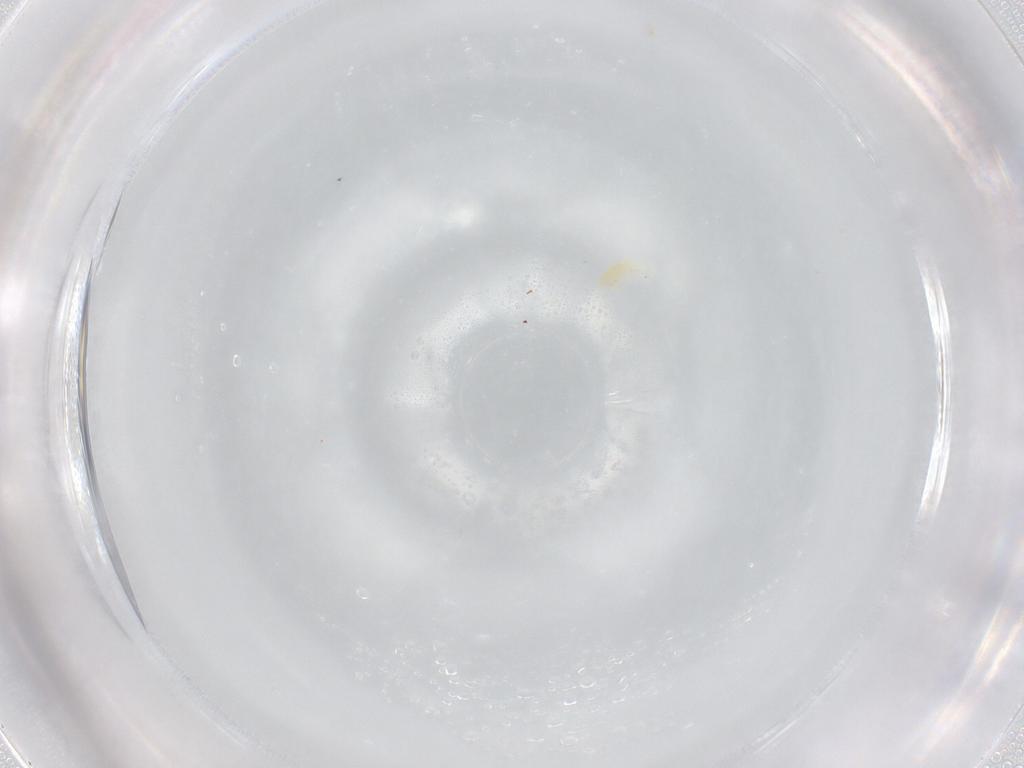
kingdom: Animalia
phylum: Arthropoda
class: Arachnida
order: Trombidiformes
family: Eupodidae
